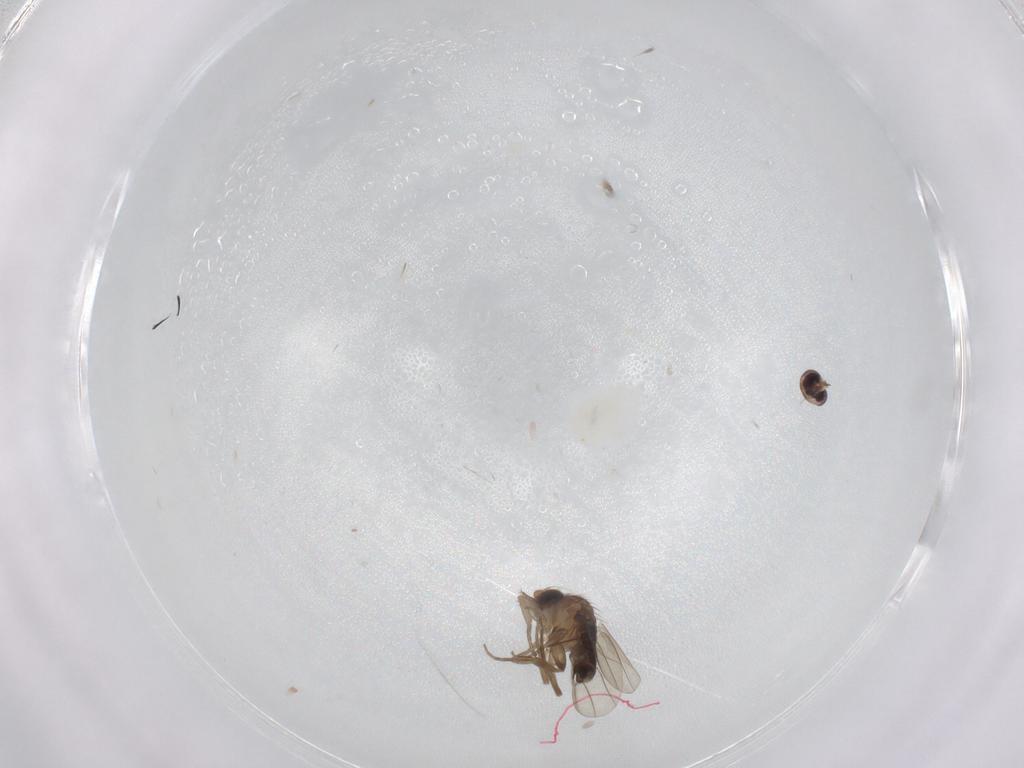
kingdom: Animalia
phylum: Arthropoda
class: Insecta
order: Diptera
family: Phoridae
